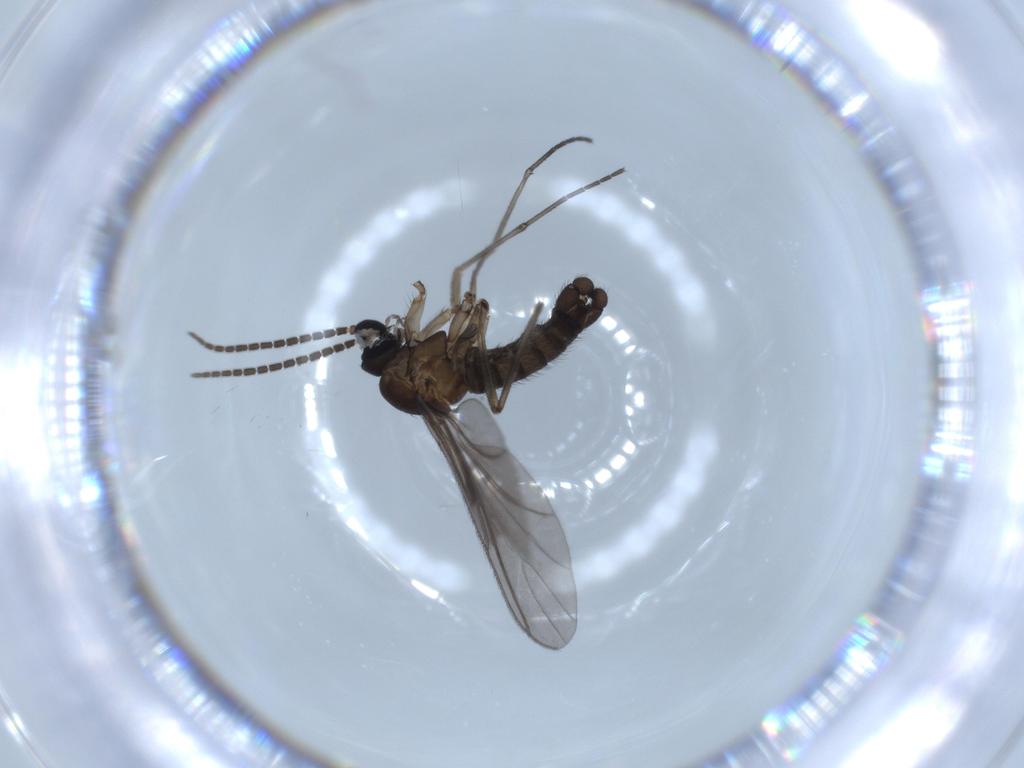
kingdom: Animalia
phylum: Arthropoda
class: Insecta
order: Diptera
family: Sciaridae
